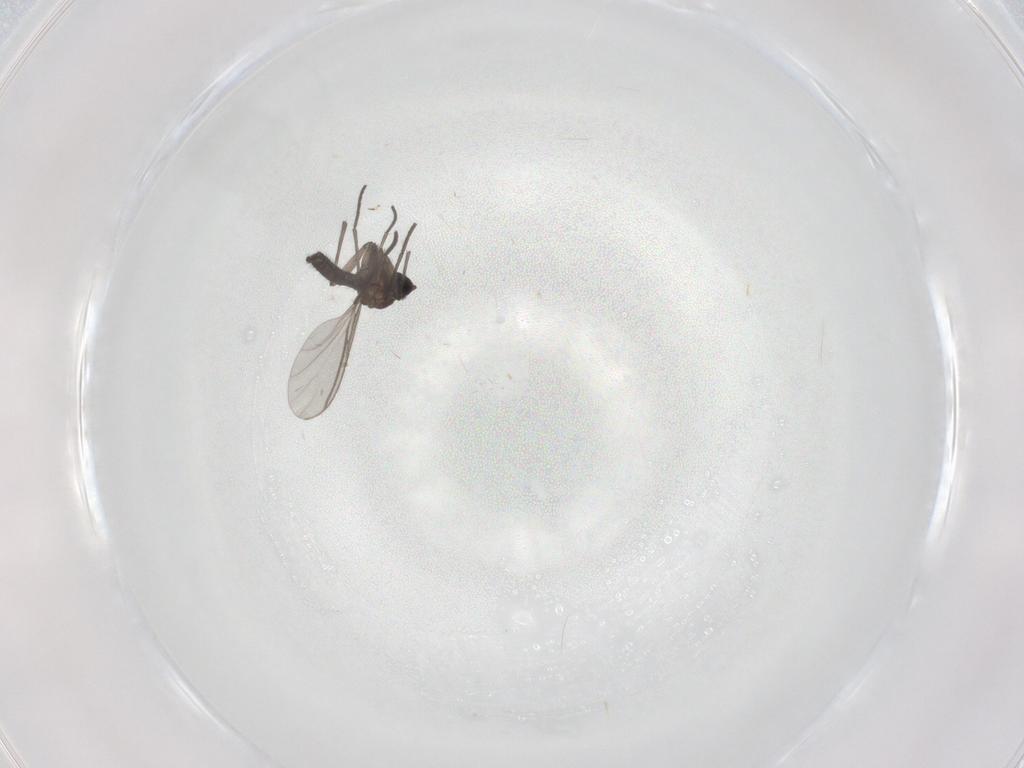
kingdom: Animalia
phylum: Arthropoda
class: Insecta
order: Diptera
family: Chironomidae
